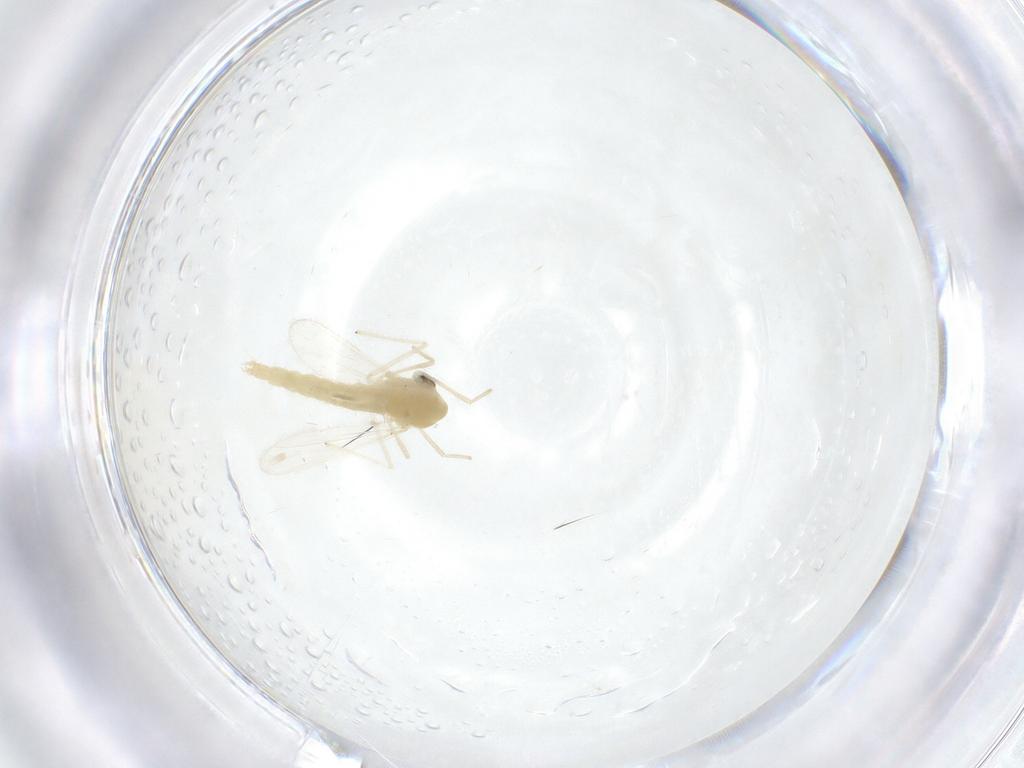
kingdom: Animalia
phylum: Arthropoda
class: Insecta
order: Diptera
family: Chironomidae
